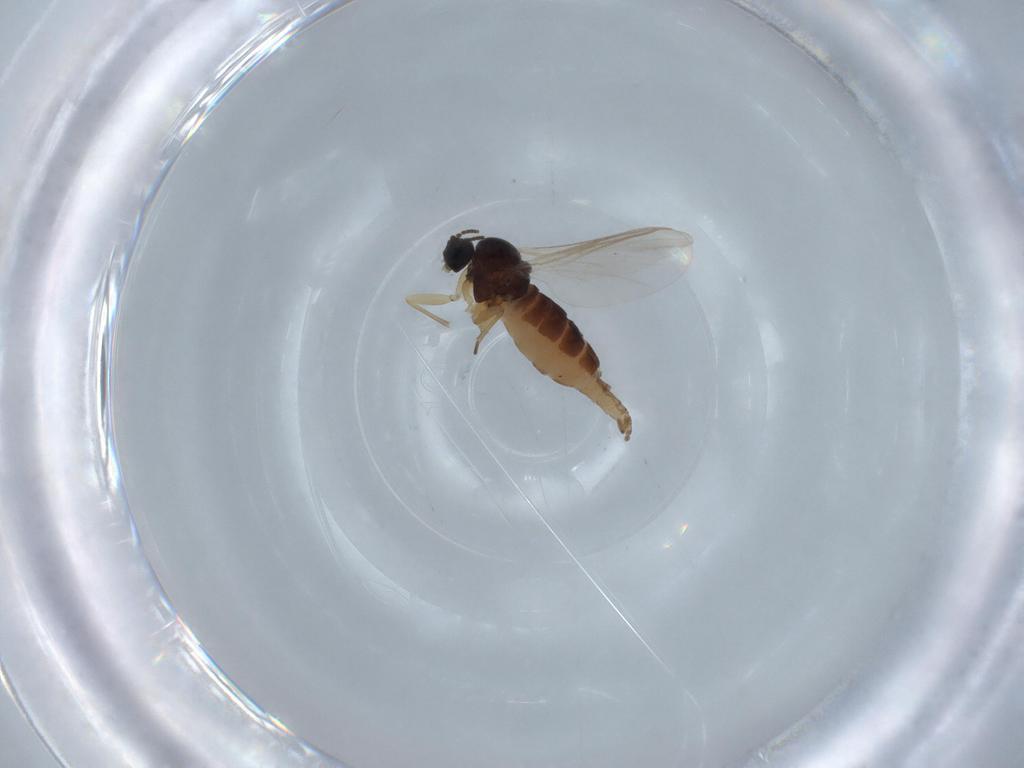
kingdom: Animalia
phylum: Arthropoda
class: Insecta
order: Diptera
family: Sciaridae
